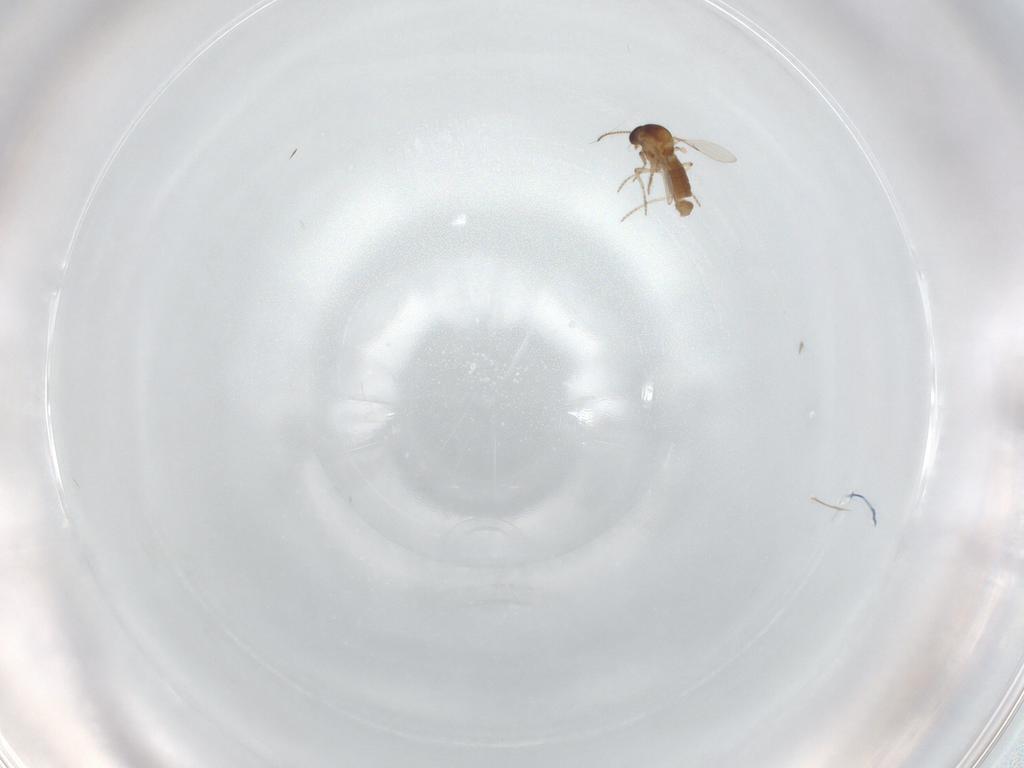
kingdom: Animalia
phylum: Arthropoda
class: Insecta
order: Diptera
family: Ceratopogonidae
